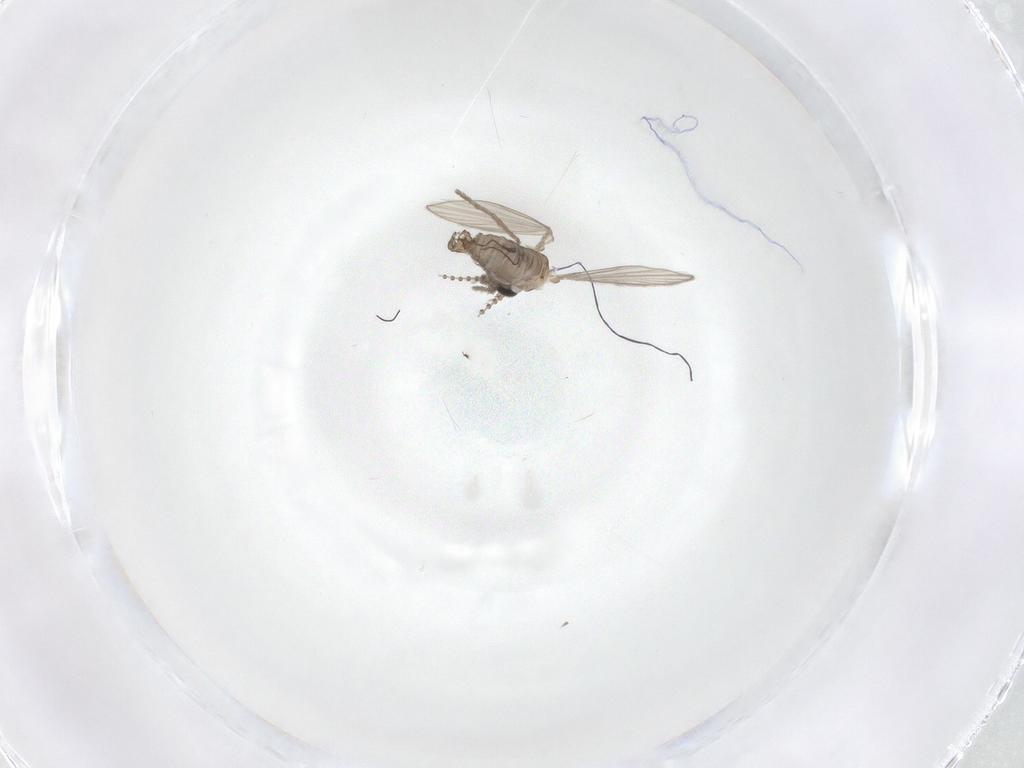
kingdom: Animalia
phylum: Arthropoda
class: Insecta
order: Diptera
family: Psychodidae
